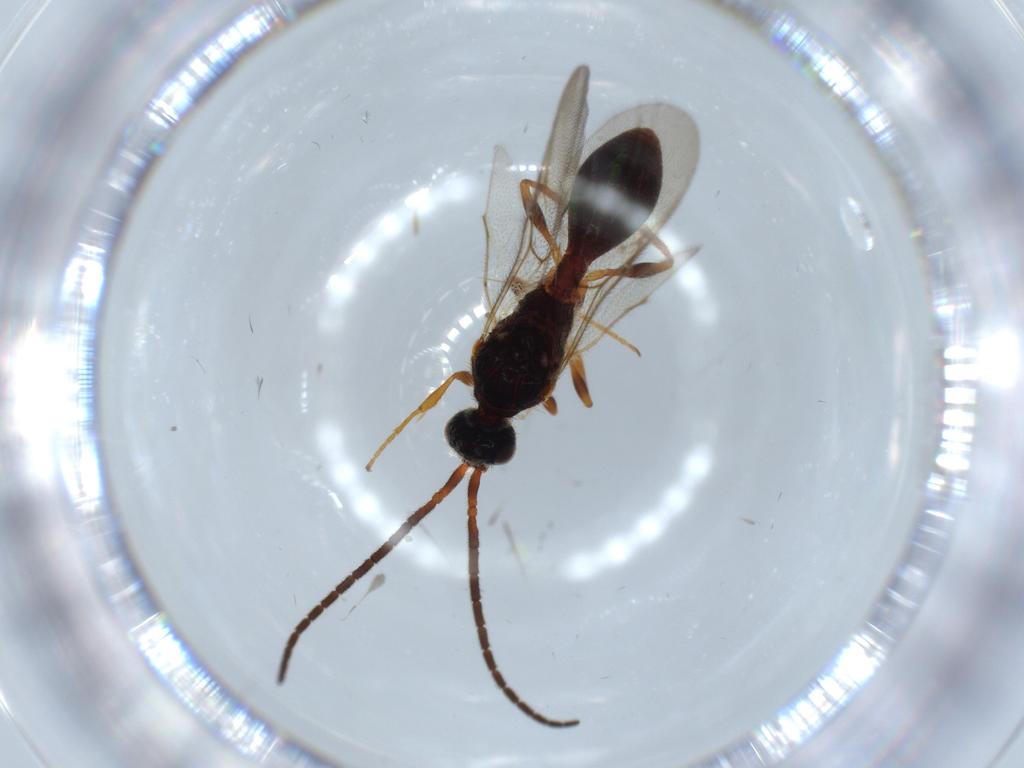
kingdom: Animalia
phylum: Arthropoda
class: Insecta
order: Hymenoptera
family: Diapriidae
